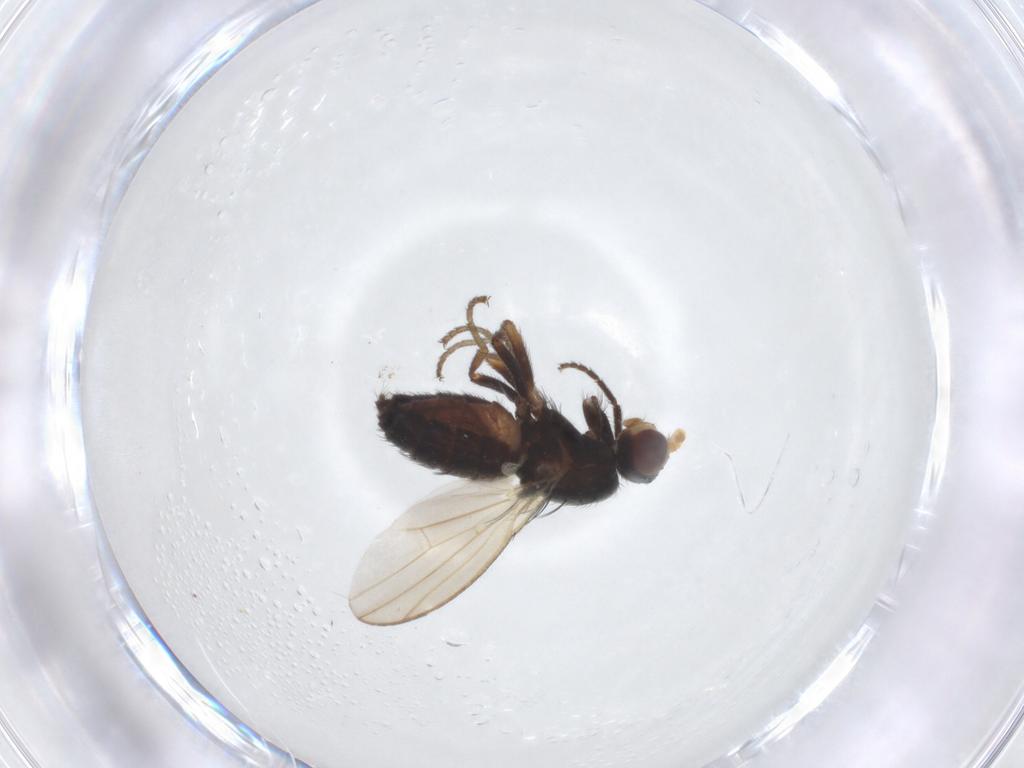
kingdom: Animalia
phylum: Arthropoda
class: Insecta
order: Diptera
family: Heleomyzidae
